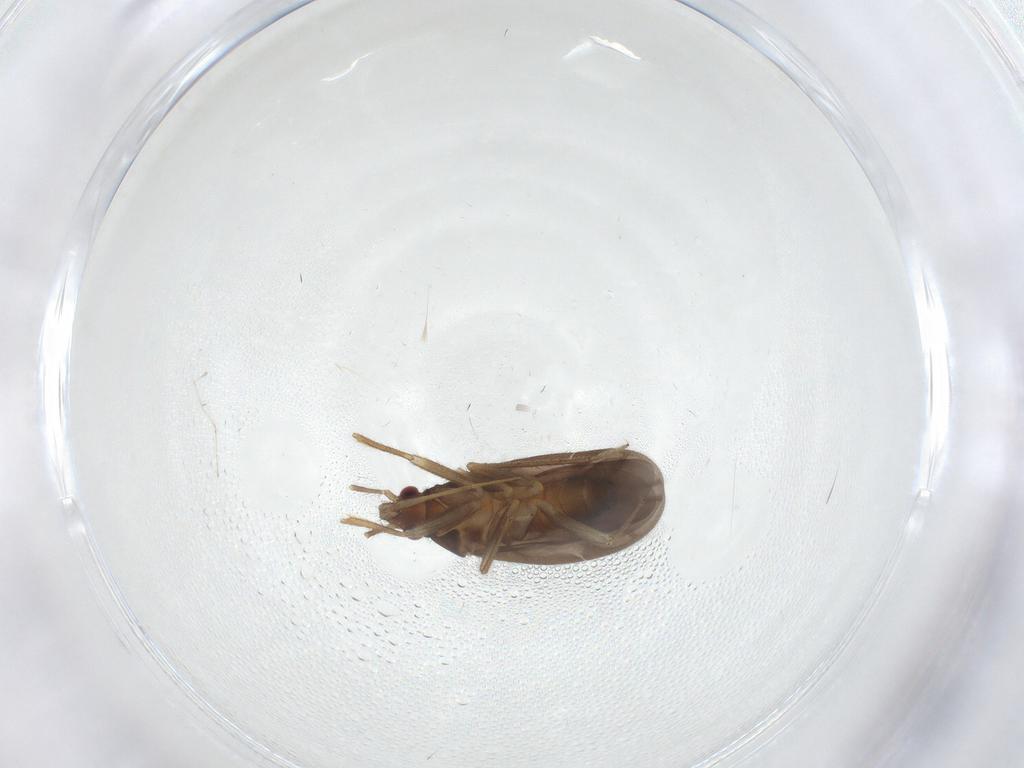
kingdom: Animalia
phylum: Arthropoda
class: Insecta
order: Hemiptera
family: Ceratocombidae
